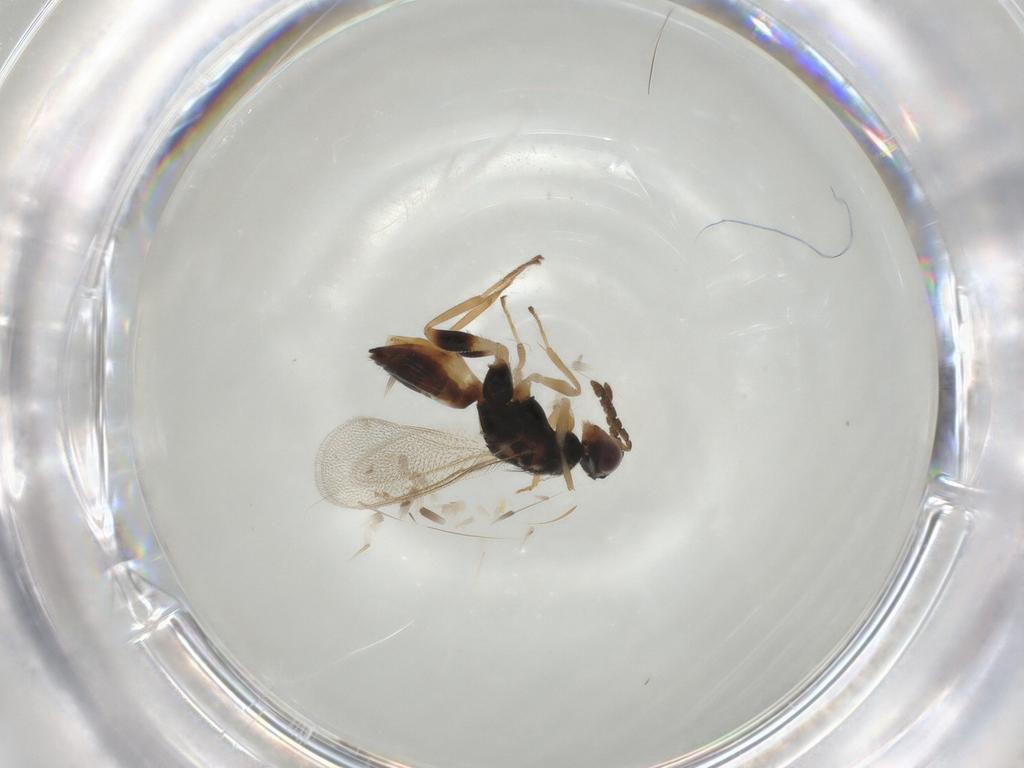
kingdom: Animalia
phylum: Arthropoda
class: Insecta
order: Hymenoptera
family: Eulophidae
